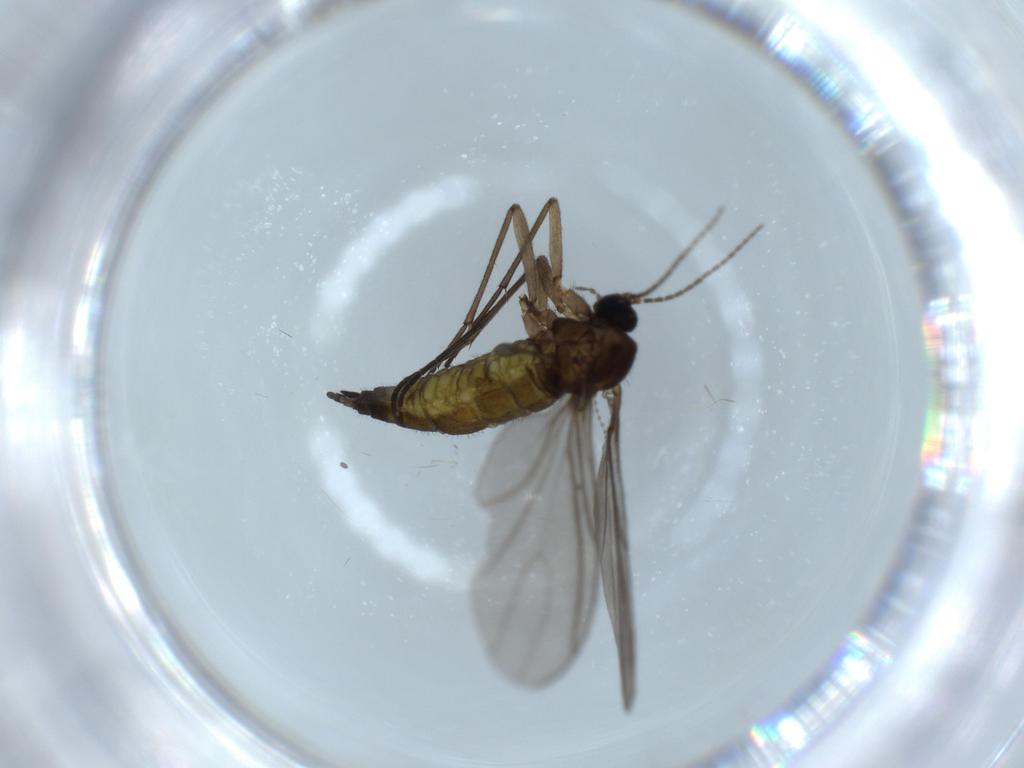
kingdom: Animalia
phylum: Arthropoda
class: Insecta
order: Diptera
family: Sciaridae
